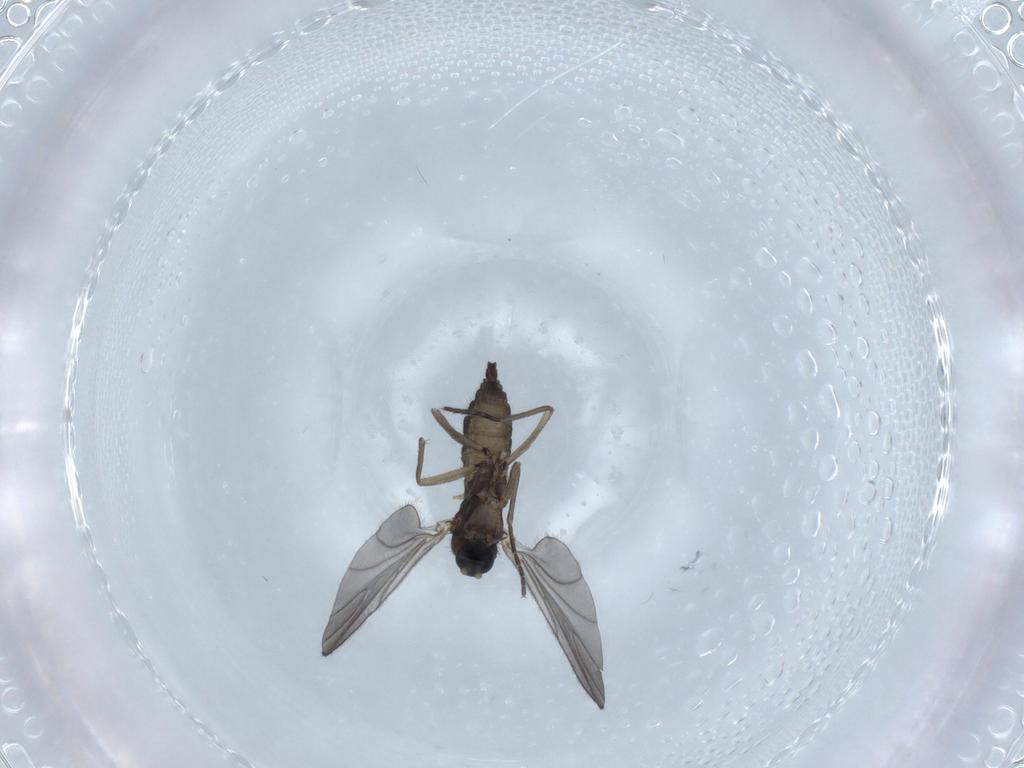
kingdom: Animalia
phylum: Arthropoda
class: Insecta
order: Diptera
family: Sciaridae
